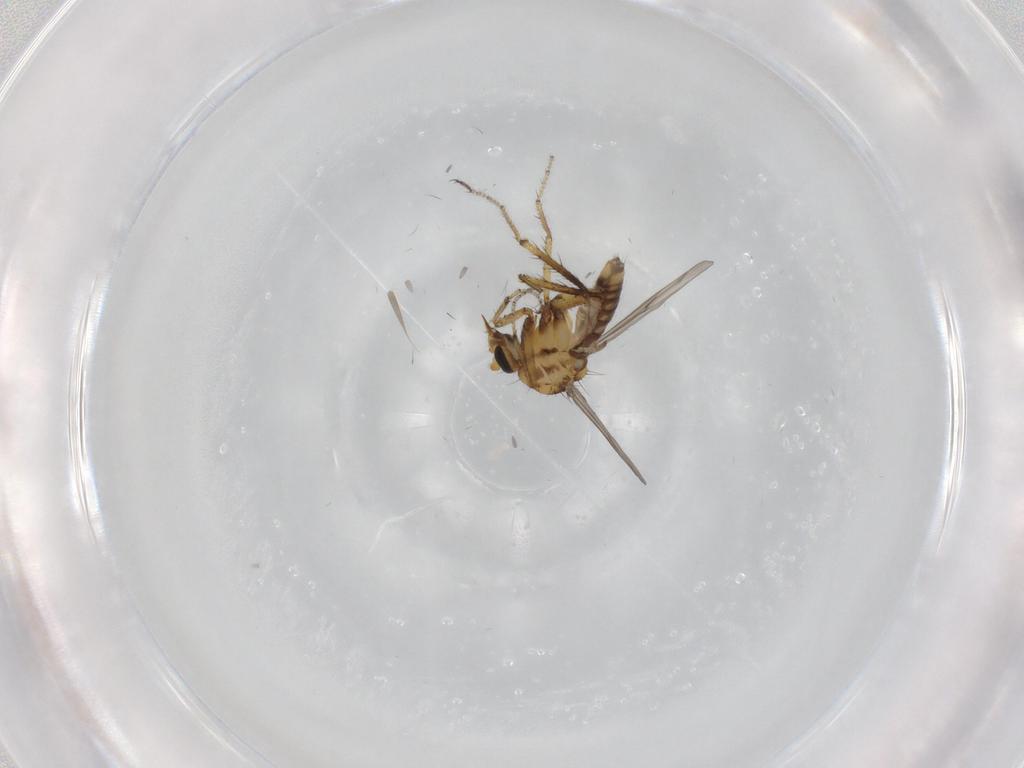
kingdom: Animalia
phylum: Arthropoda
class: Insecta
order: Diptera
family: Ceratopogonidae
